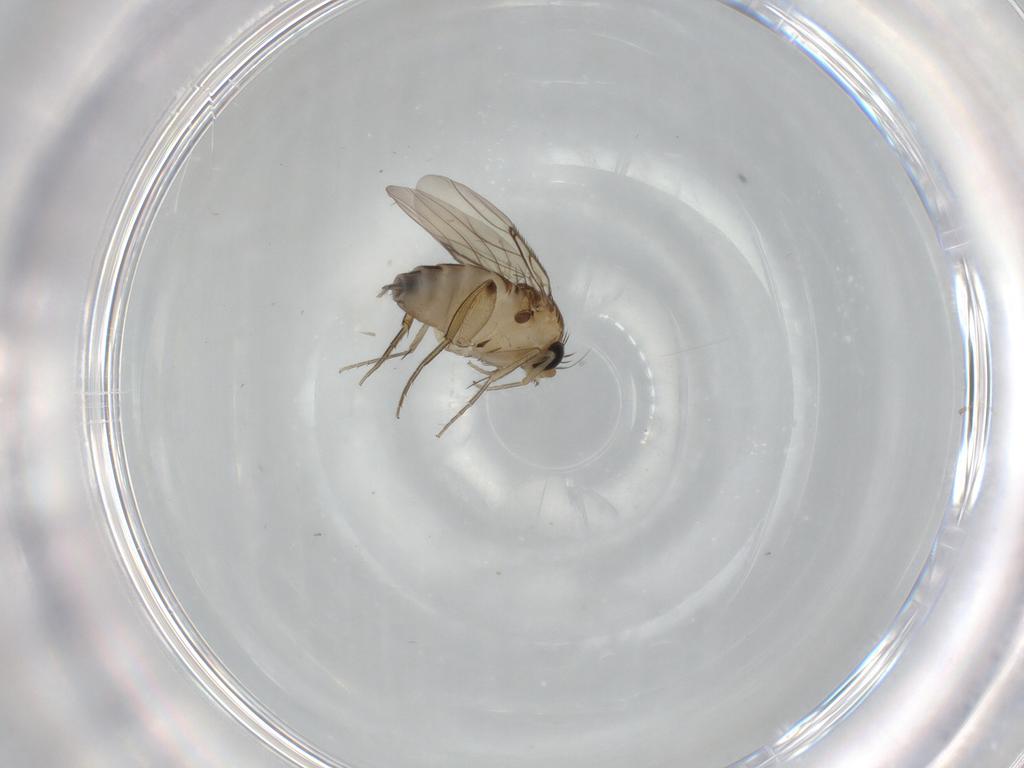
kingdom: Animalia
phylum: Arthropoda
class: Insecta
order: Diptera
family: Phoridae
